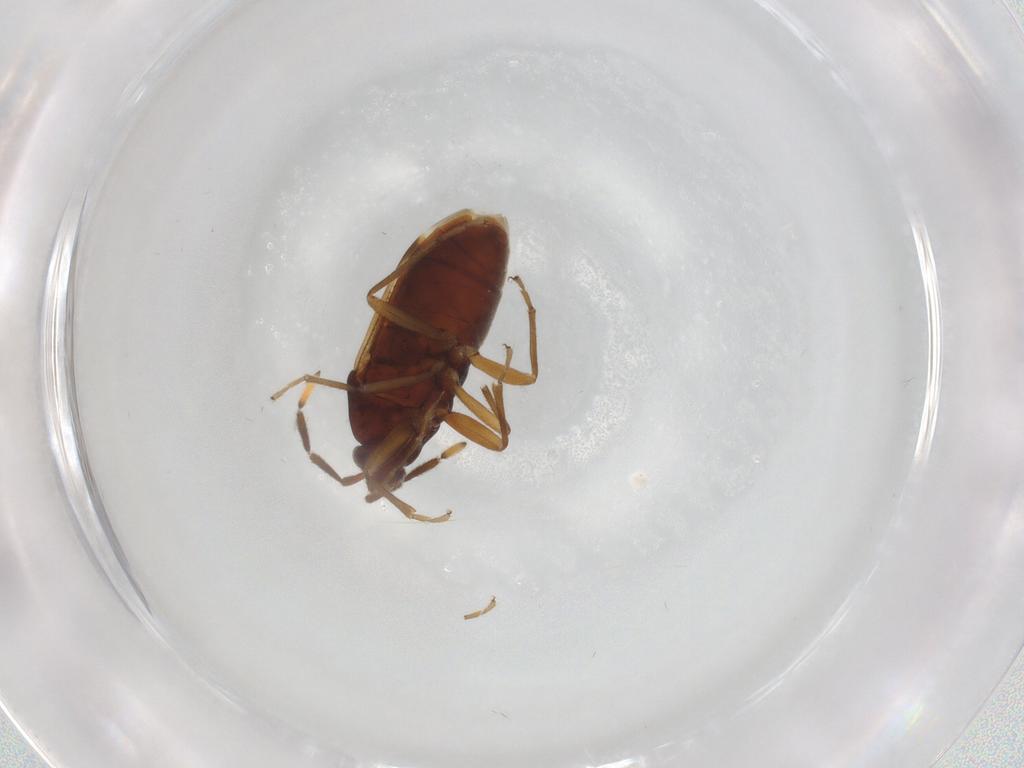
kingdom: Animalia
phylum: Arthropoda
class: Insecta
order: Hemiptera
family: Rhyparochromidae
